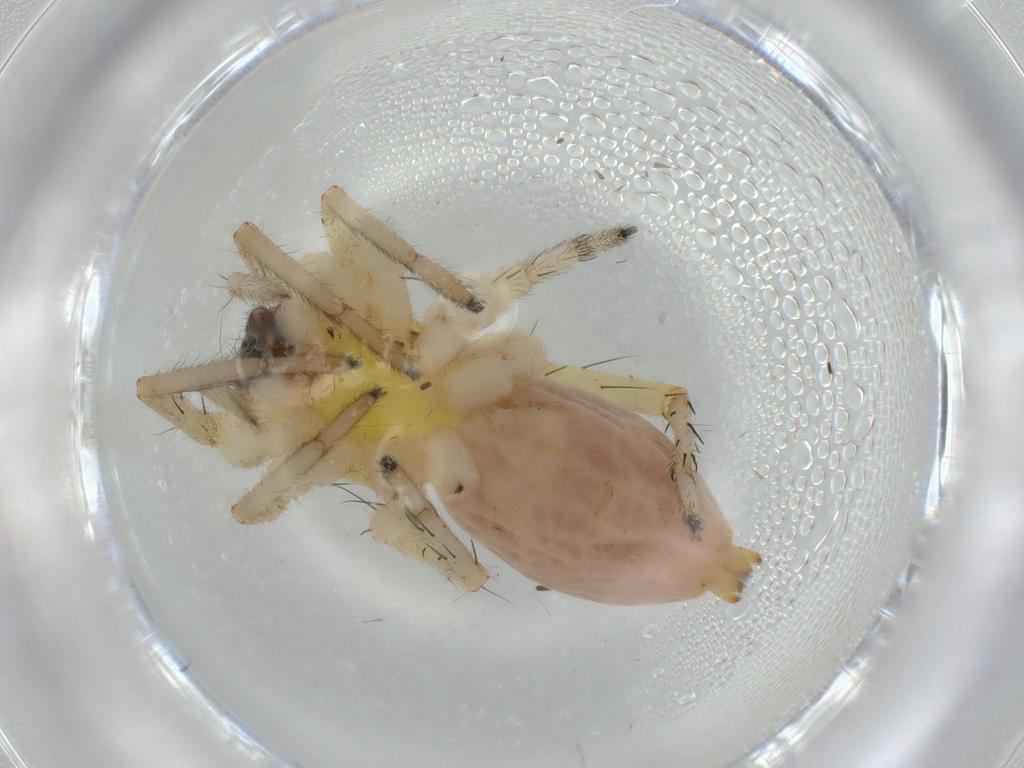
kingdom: Animalia
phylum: Arthropoda
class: Arachnida
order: Araneae
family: Anyphaenidae
